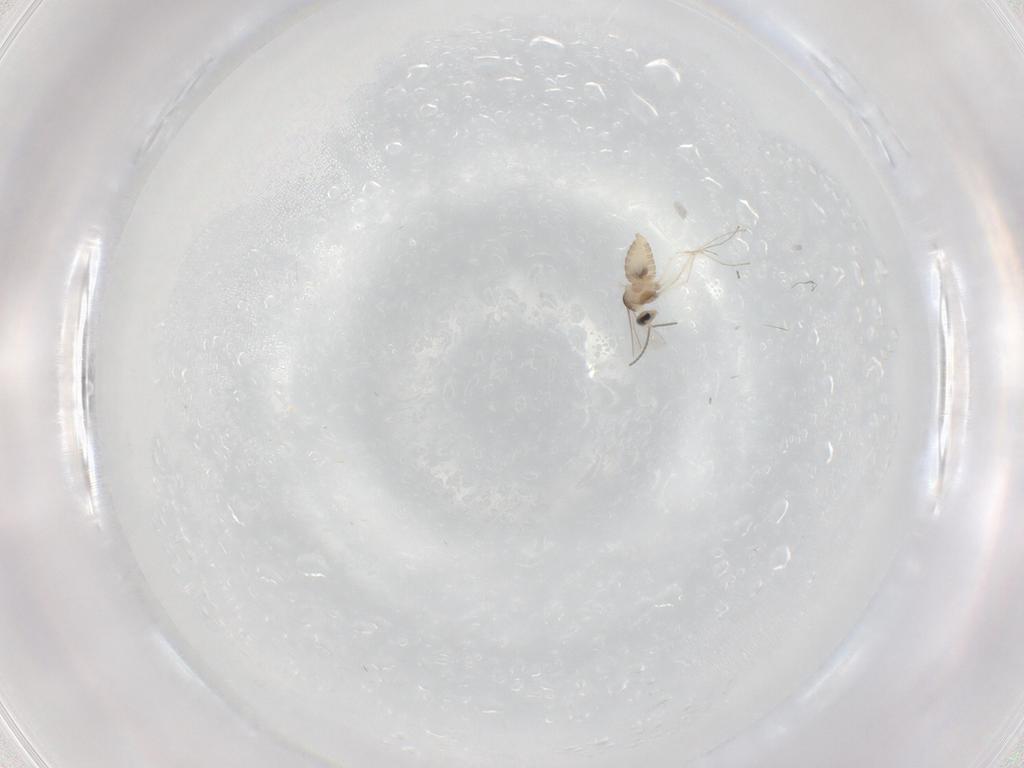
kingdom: Animalia
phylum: Arthropoda
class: Insecta
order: Diptera
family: Cecidomyiidae
